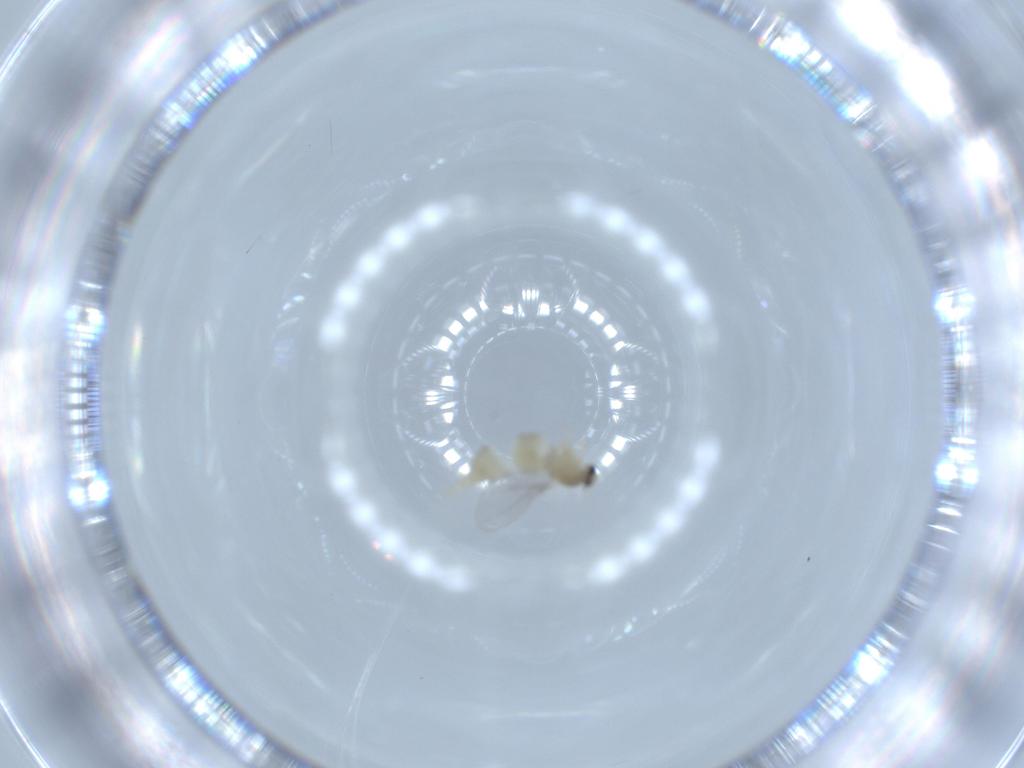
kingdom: Animalia
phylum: Arthropoda
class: Insecta
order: Diptera
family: Cecidomyiidae
